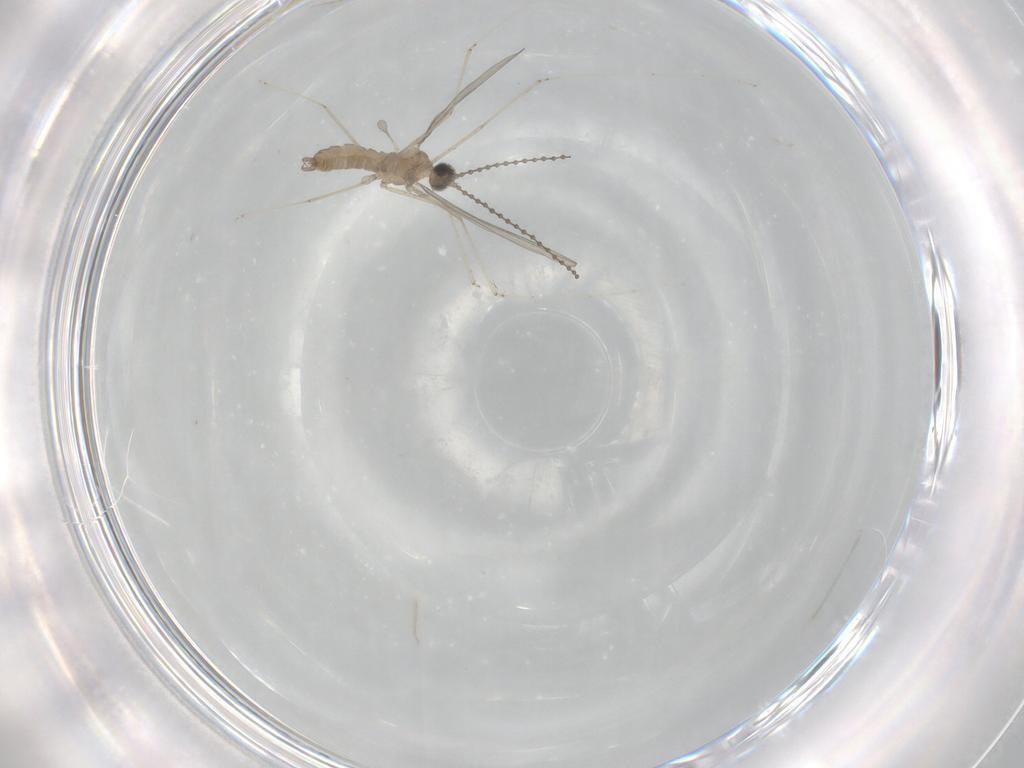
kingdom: Animalia
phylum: Arthropoda
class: Insecta
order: Diptera
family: Cecidomyiidae
